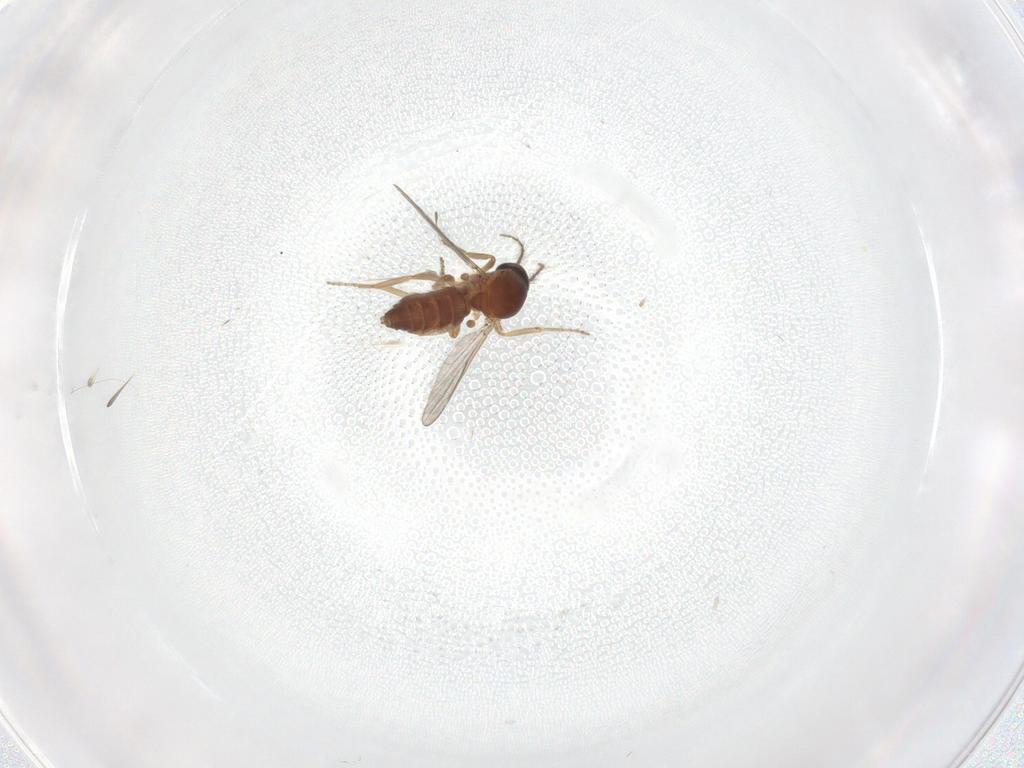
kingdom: Animalia
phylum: Arthropoda
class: Insecta
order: Diptera
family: Ceratopogonidae
